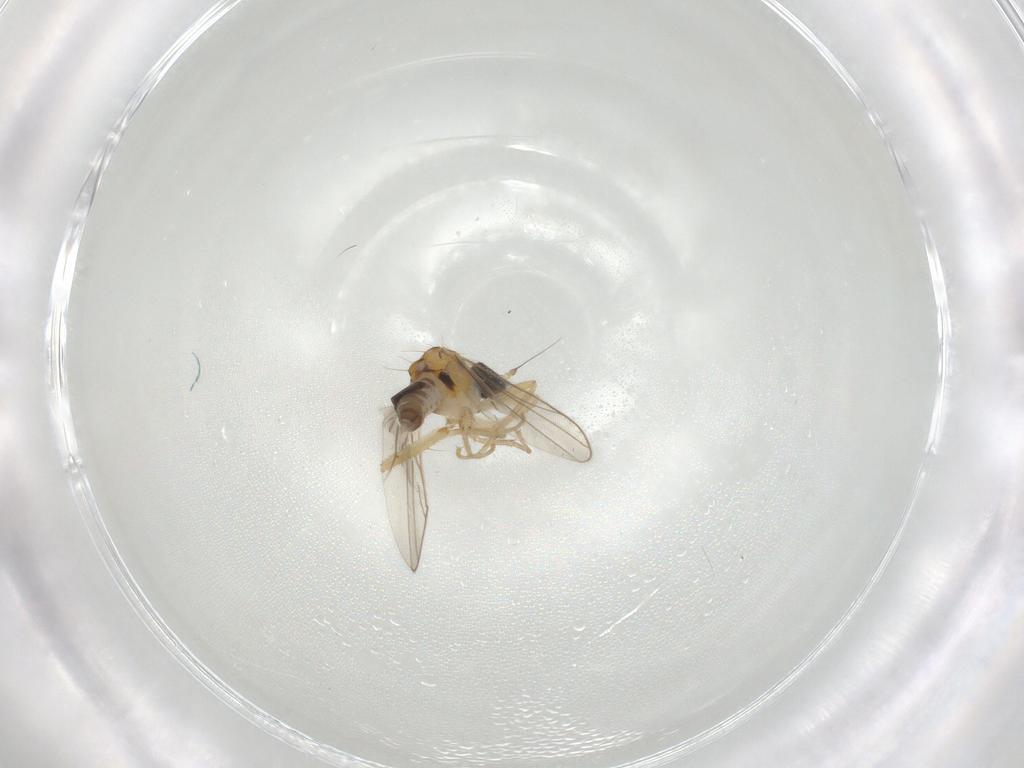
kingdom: Animalia
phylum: Arthropoda
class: Insecta
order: Diptera
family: Hybotidae
